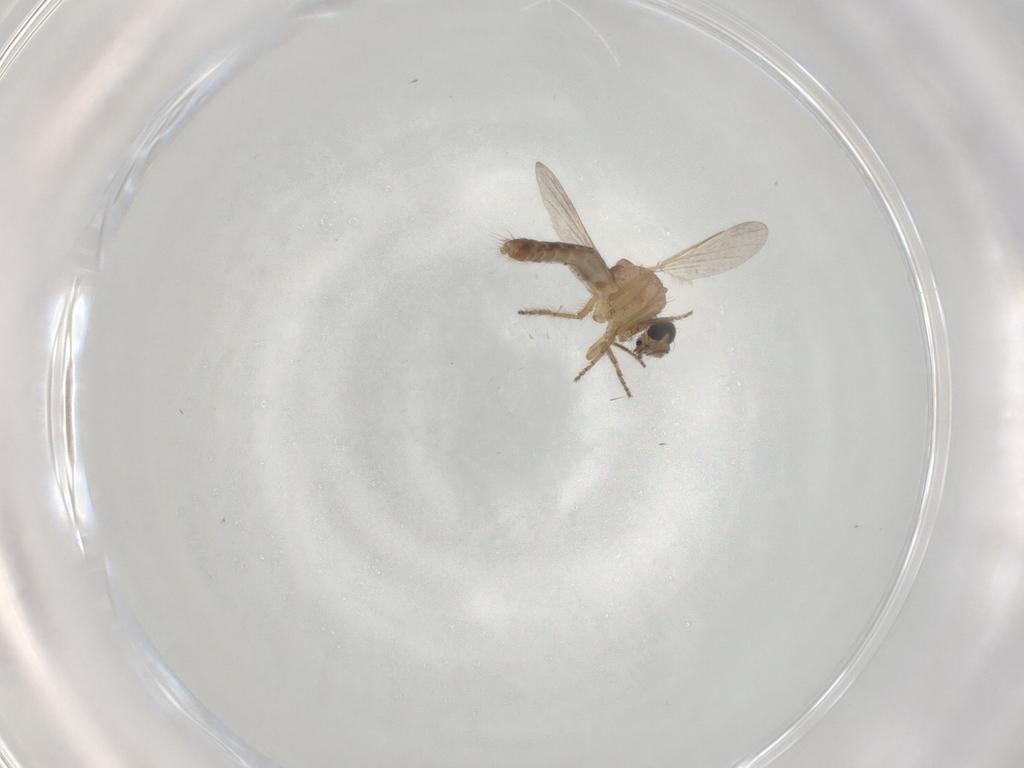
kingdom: Animalia
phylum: Arthropoda
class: Insecta
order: Diptera
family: Ceratopogonidae
